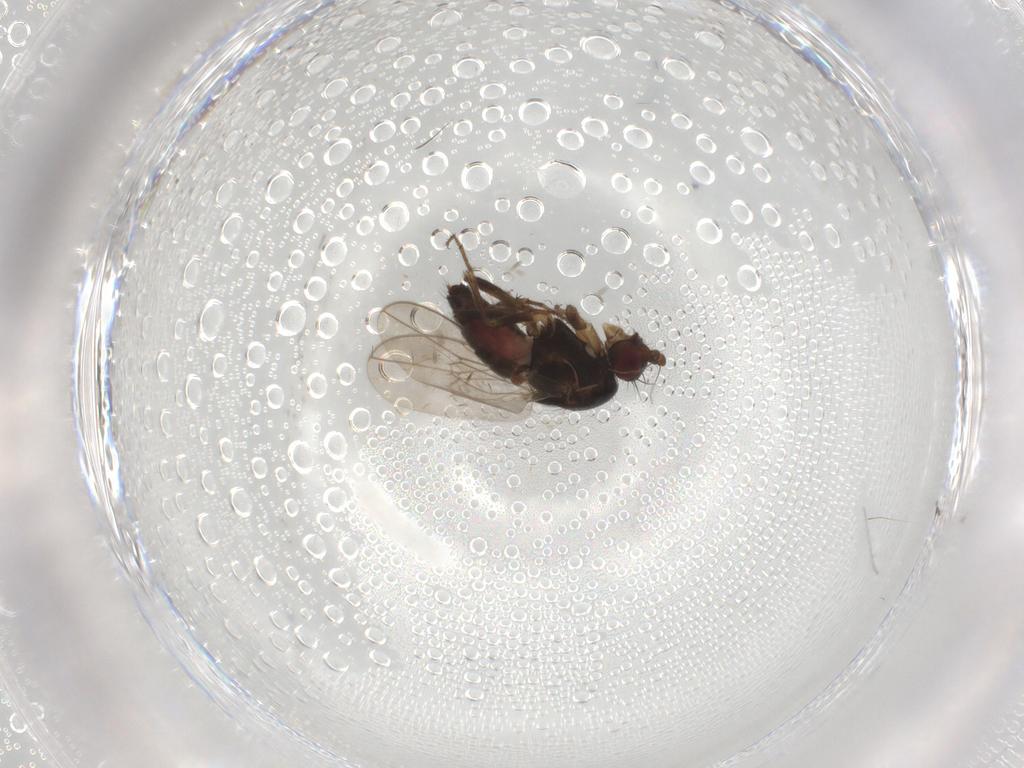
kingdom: Animalia
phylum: Arthropoda
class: Insecta
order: Diptera
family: Sphaeroceridae
